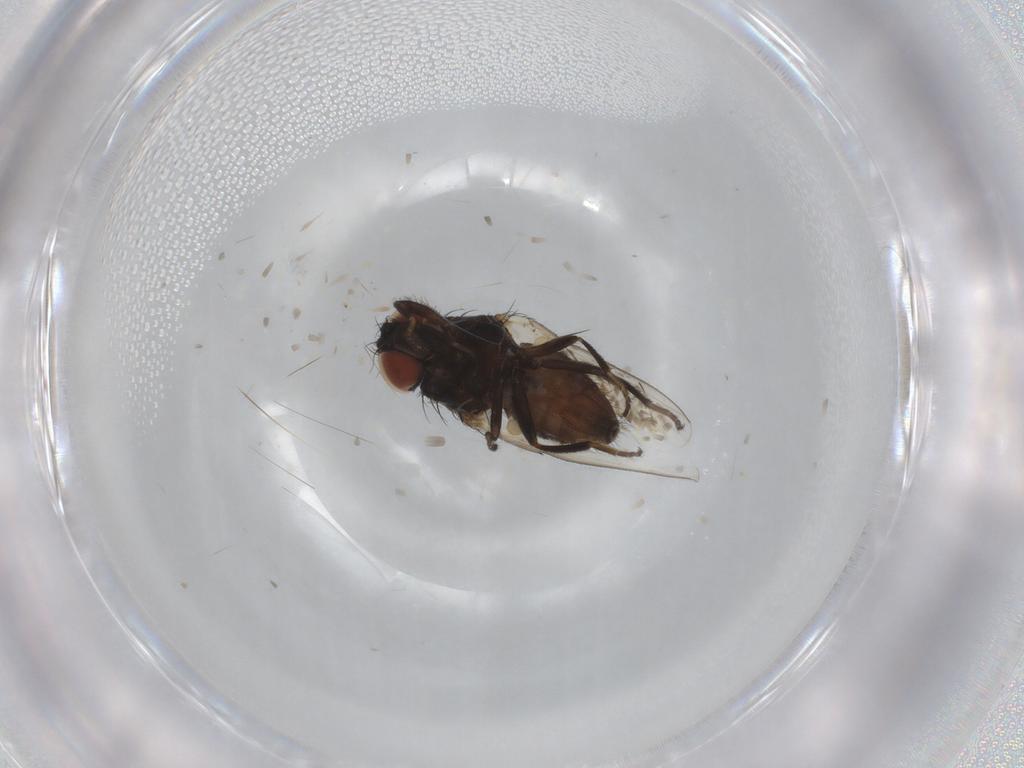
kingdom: Animalia
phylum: Arthropoda
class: Insecta
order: Diptera
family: Milichiidae
